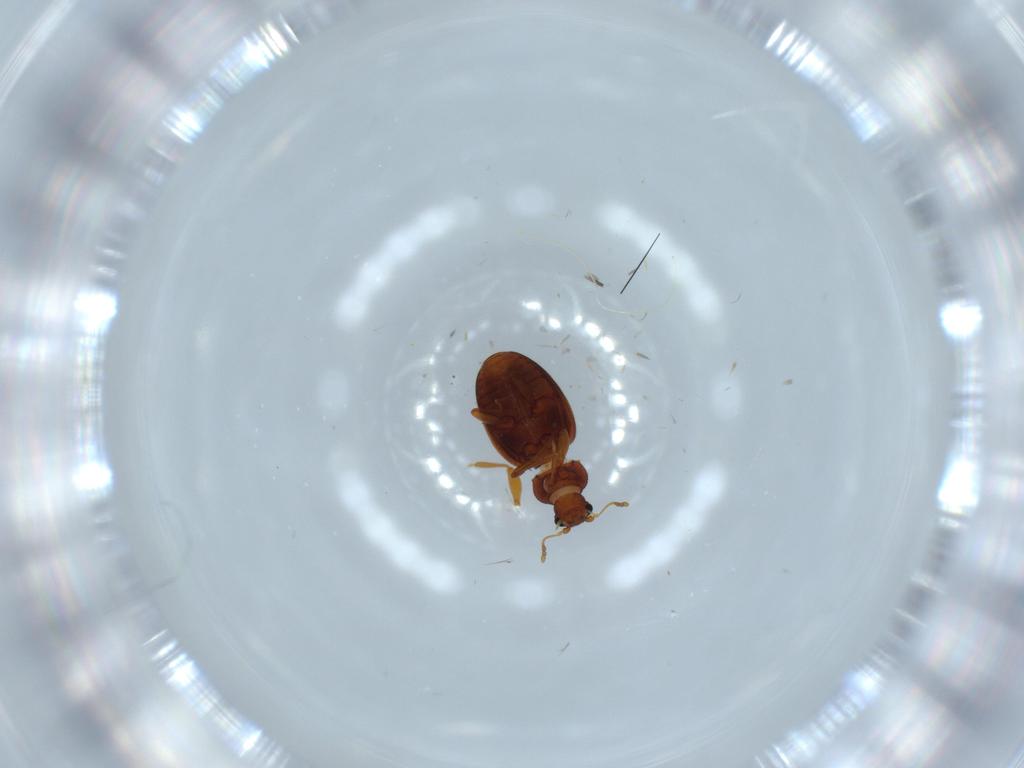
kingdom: Animalia
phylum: Arthropoda
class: Insecta
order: Coleoptera
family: Latridiidae
